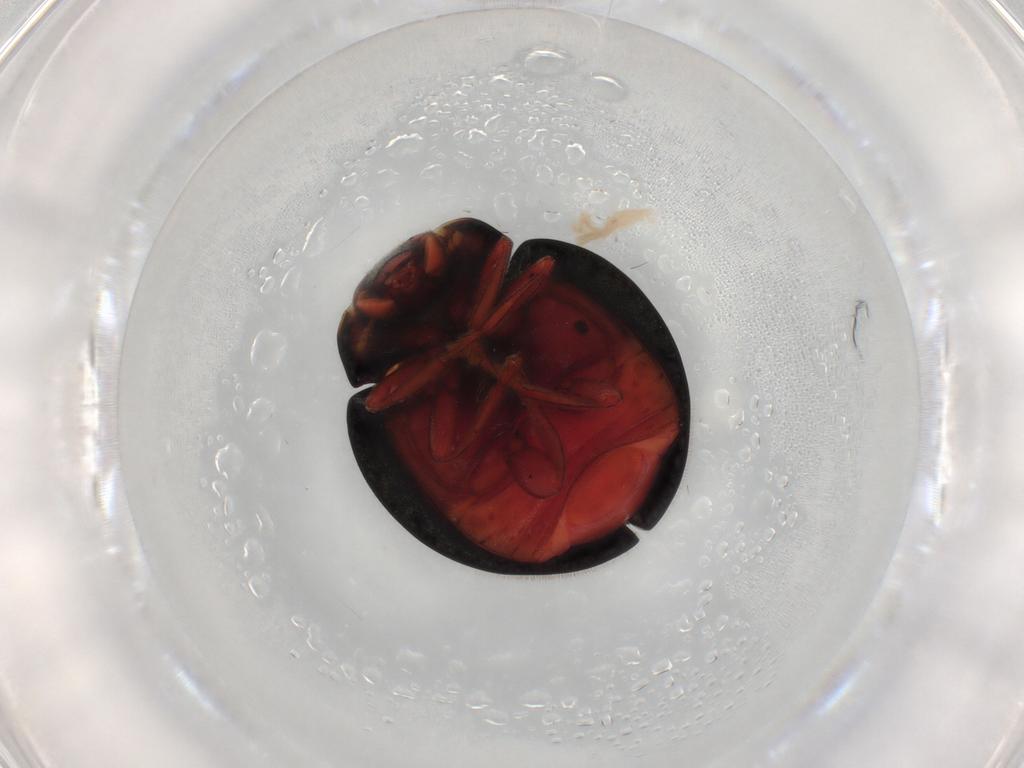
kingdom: Animalia
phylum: Arthropoda
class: Insecta
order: Coleoptera
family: Coccinellidae
